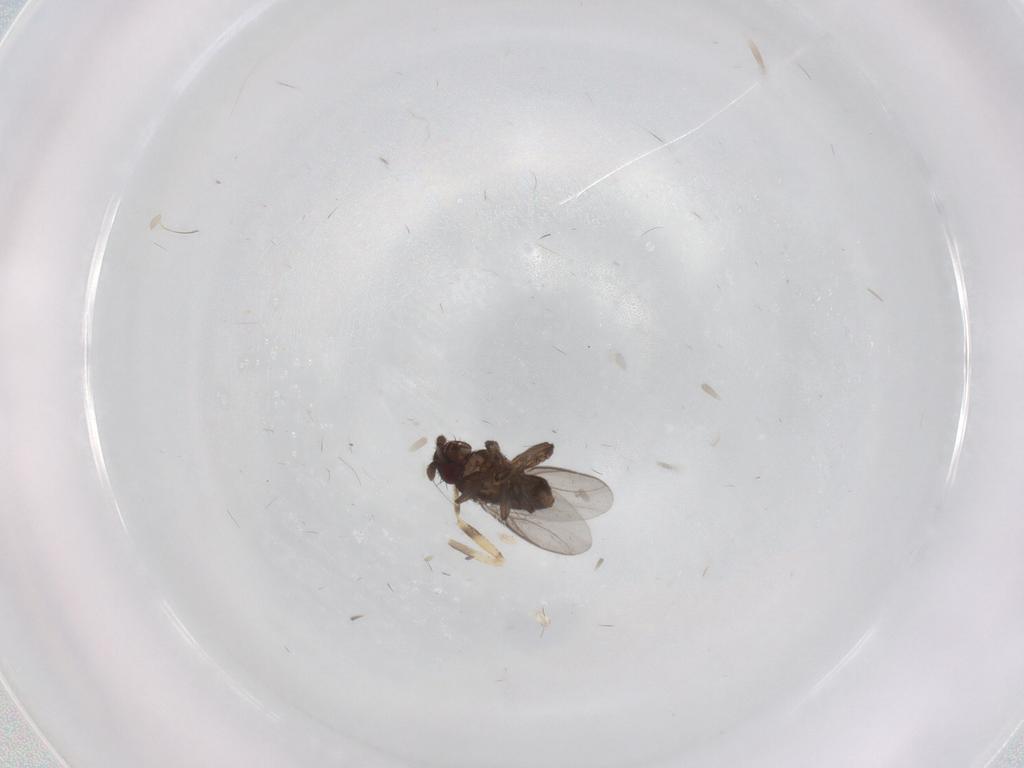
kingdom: Animalia
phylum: Arthropoda
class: Insecta
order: Diptera
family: Sphaeroceridae
